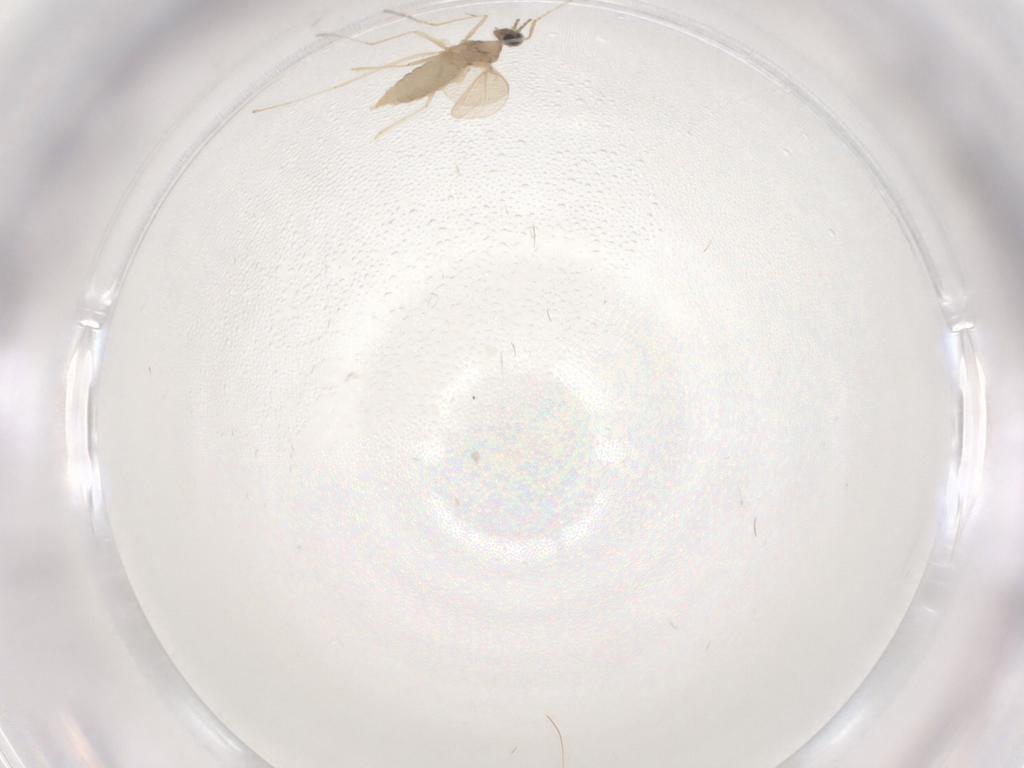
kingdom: Animalia
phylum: Arthropoda
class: Insecta
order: Diptera
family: Cecidomyiidae
